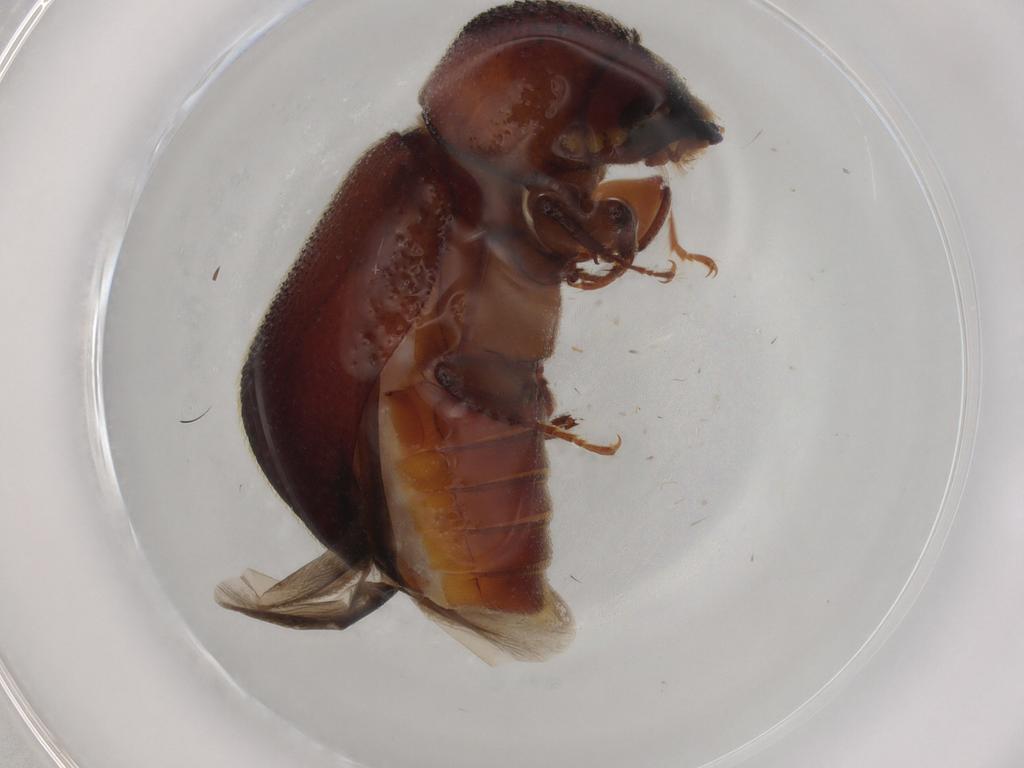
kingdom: Animalia
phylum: Arthropoda
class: Insecta
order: Coleoptera
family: Bostrichidae
